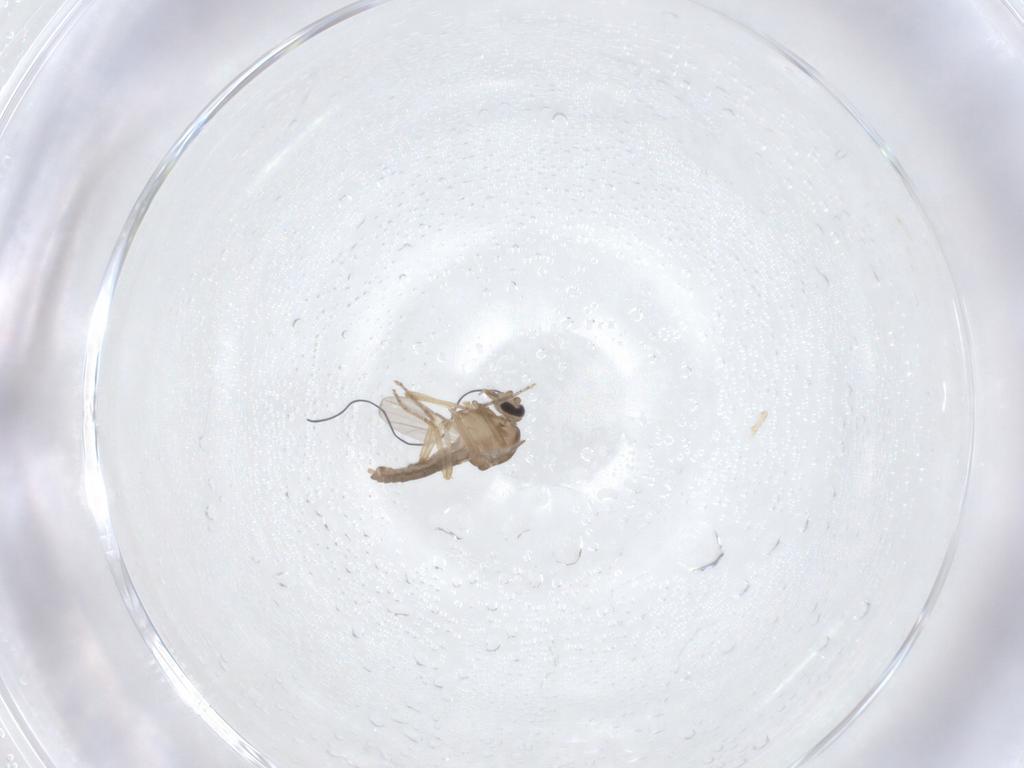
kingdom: Animalia
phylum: Arthropoda
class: Insecta
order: Diptera
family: Ceratopogonidae
